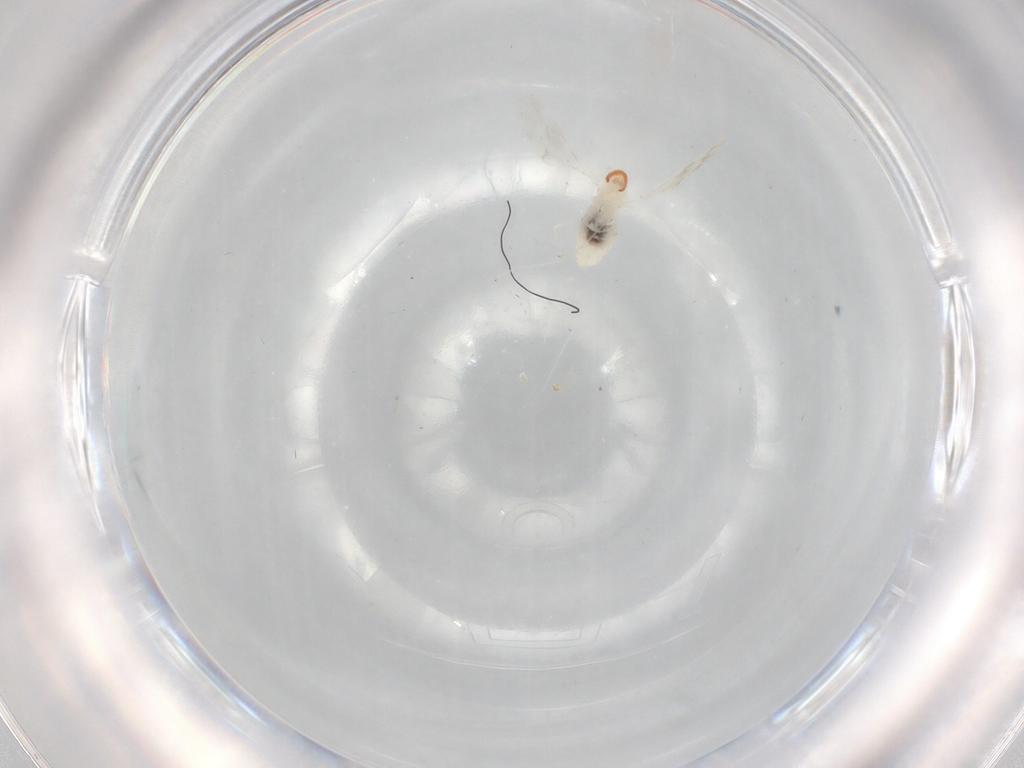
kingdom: Animalia
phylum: Arthropoda
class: Insecta
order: Diptera
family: Cecidomyiidae
